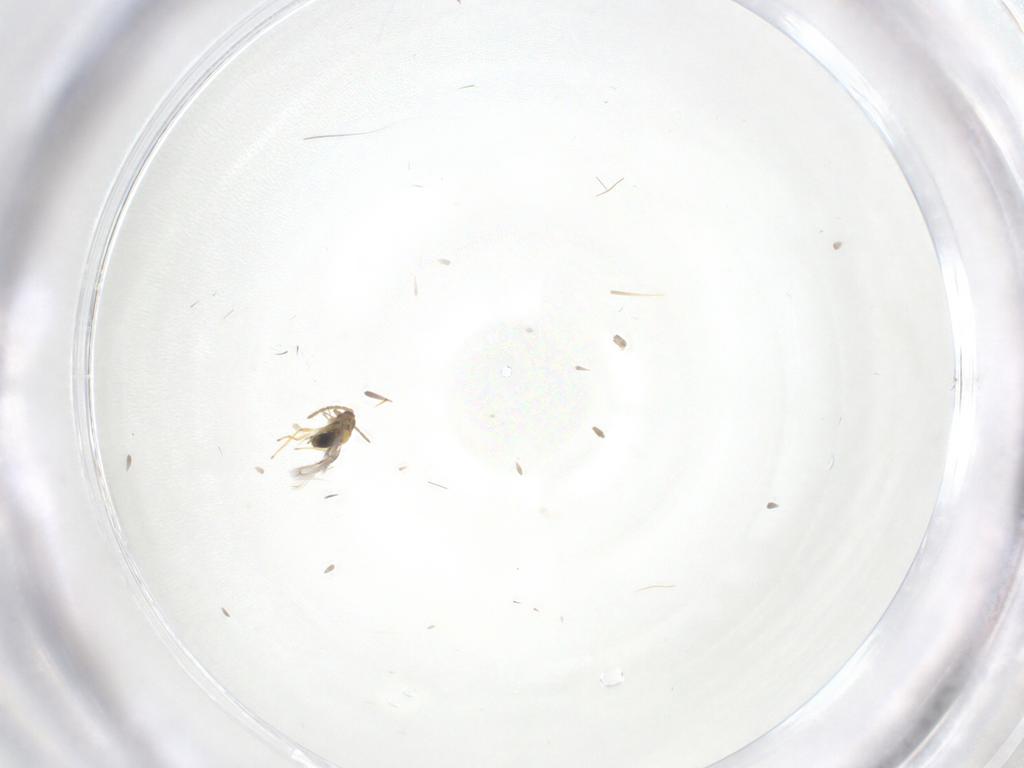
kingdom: Animalia
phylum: Arthropoda
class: Insecta
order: Hymenoptera
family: Aphelinidae
